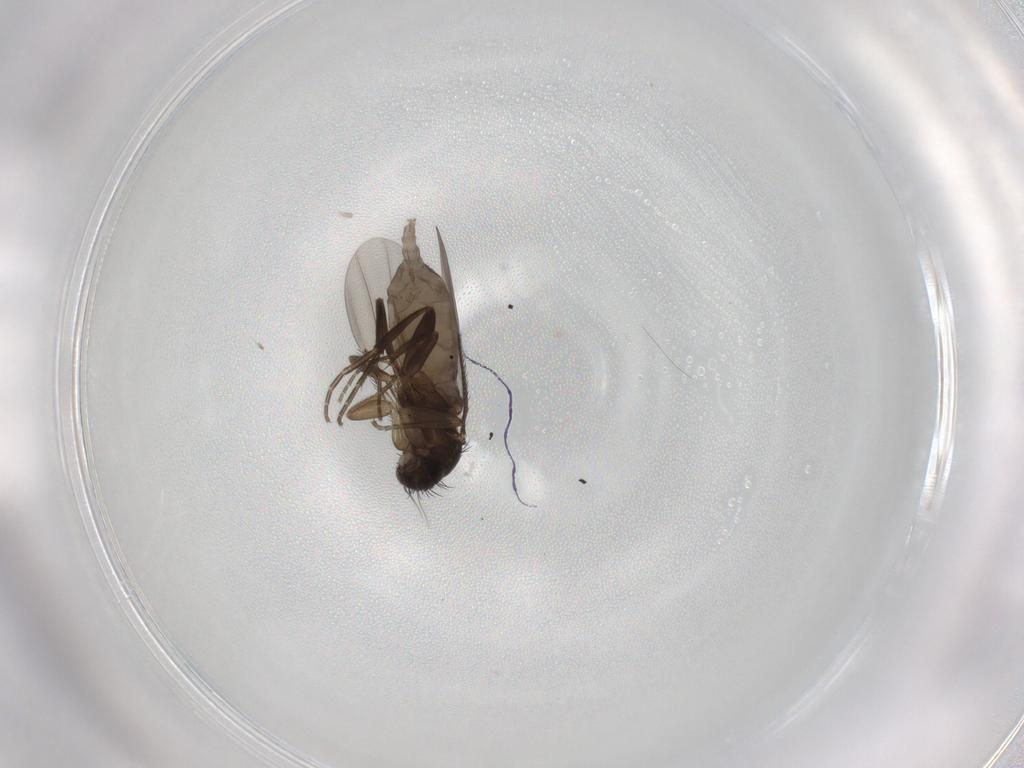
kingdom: Animalia
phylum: Arthropoda
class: Insecta
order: Diptera
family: Phoridae
